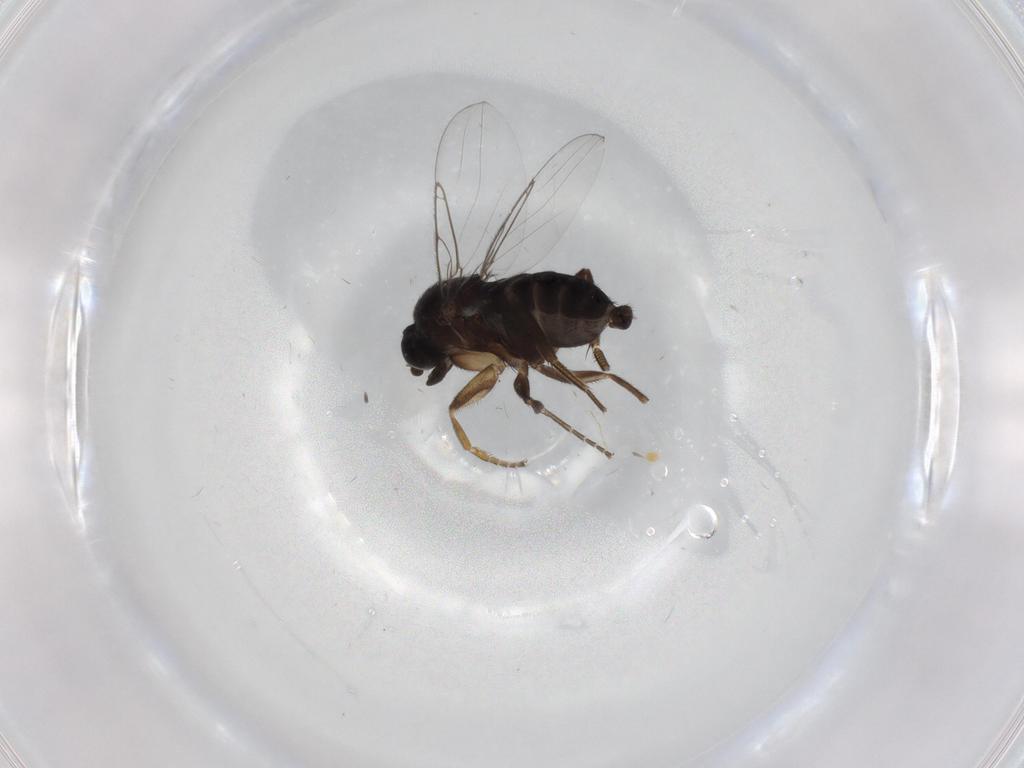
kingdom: Animalia
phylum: Arthropoda
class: Insecta
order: Diptera
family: Phoridae
